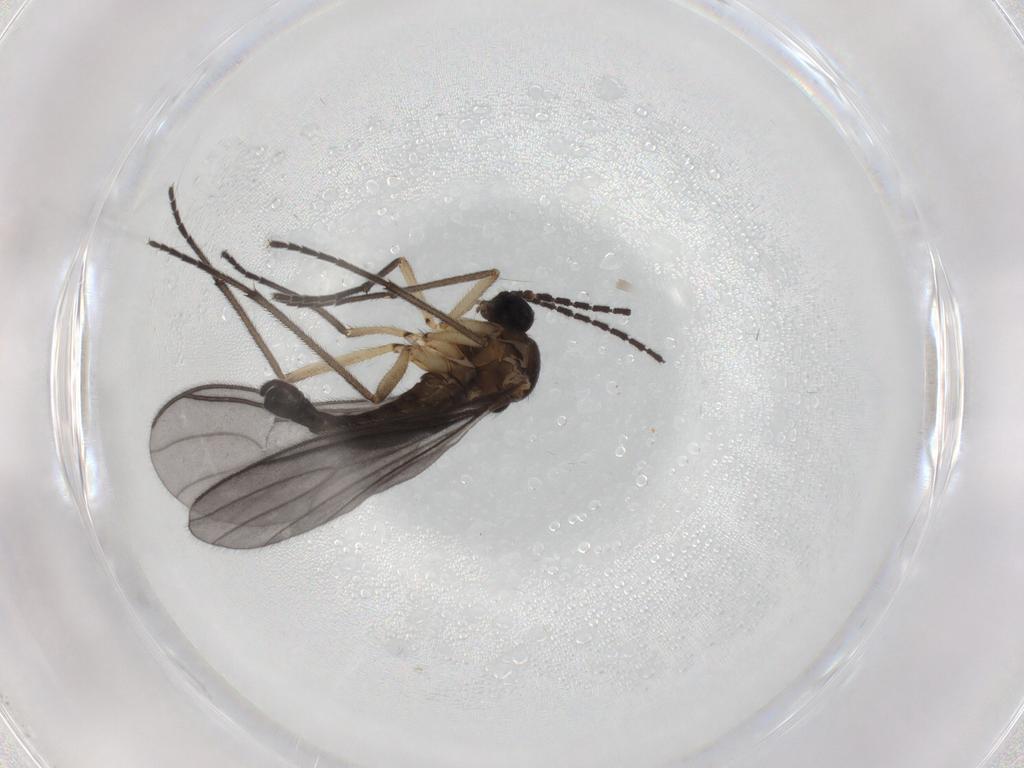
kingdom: Animalia
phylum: Arthropoda
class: Insecta
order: Diptera
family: Sciaridae
